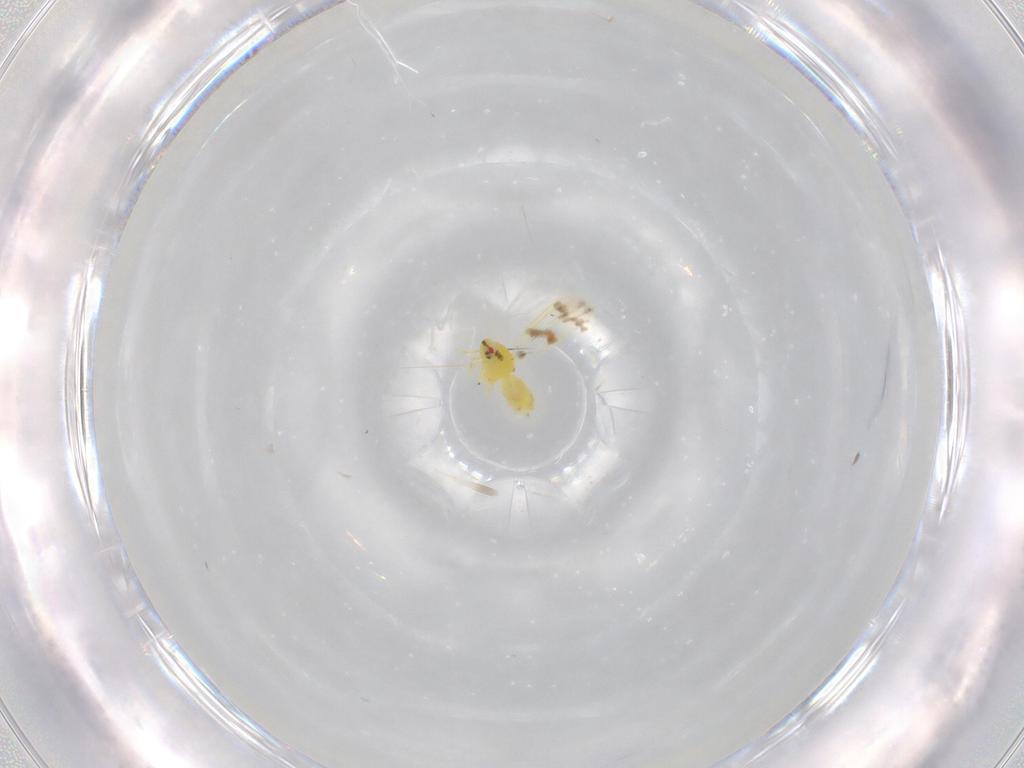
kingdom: Animalia
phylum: Arthropoda
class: Insecta
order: Hemiptera
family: Aleyrodidae
